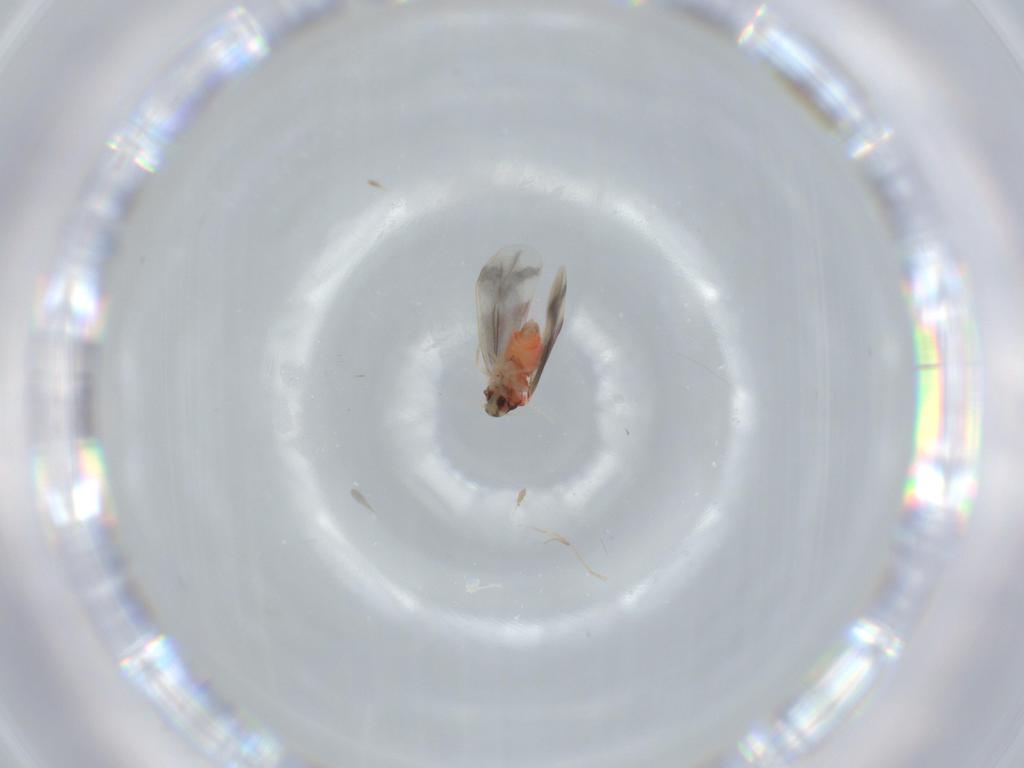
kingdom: Animalia
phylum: Arthropoda
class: Insecta
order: Hemiptera
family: Aleyrodidae
